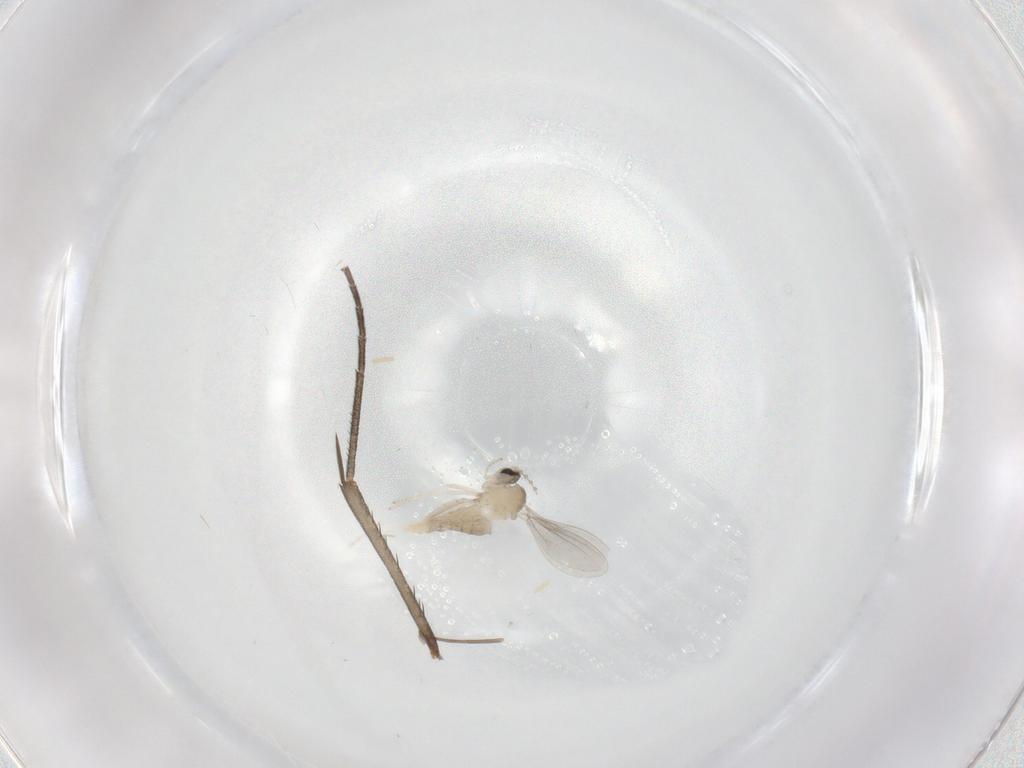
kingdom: Animalia
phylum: Arthropoda
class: Insecta
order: Diptera
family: Cecidomyiidae
